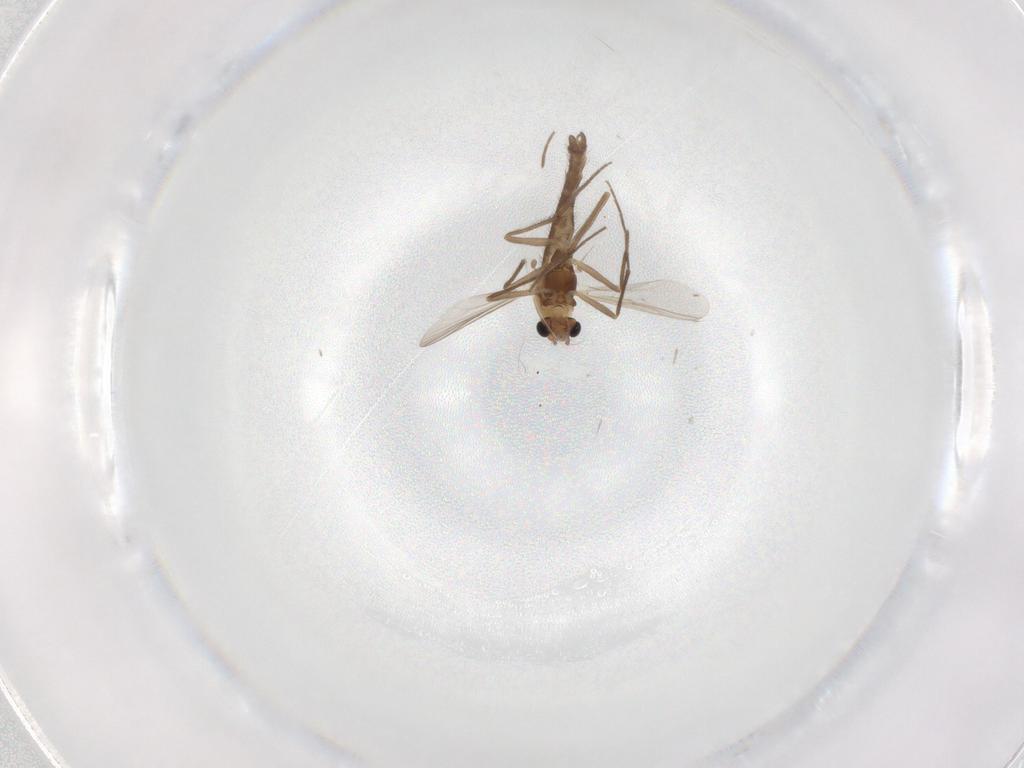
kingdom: Animalia
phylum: Arthropoda
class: Insecta
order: Diptera
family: Chironomidae
